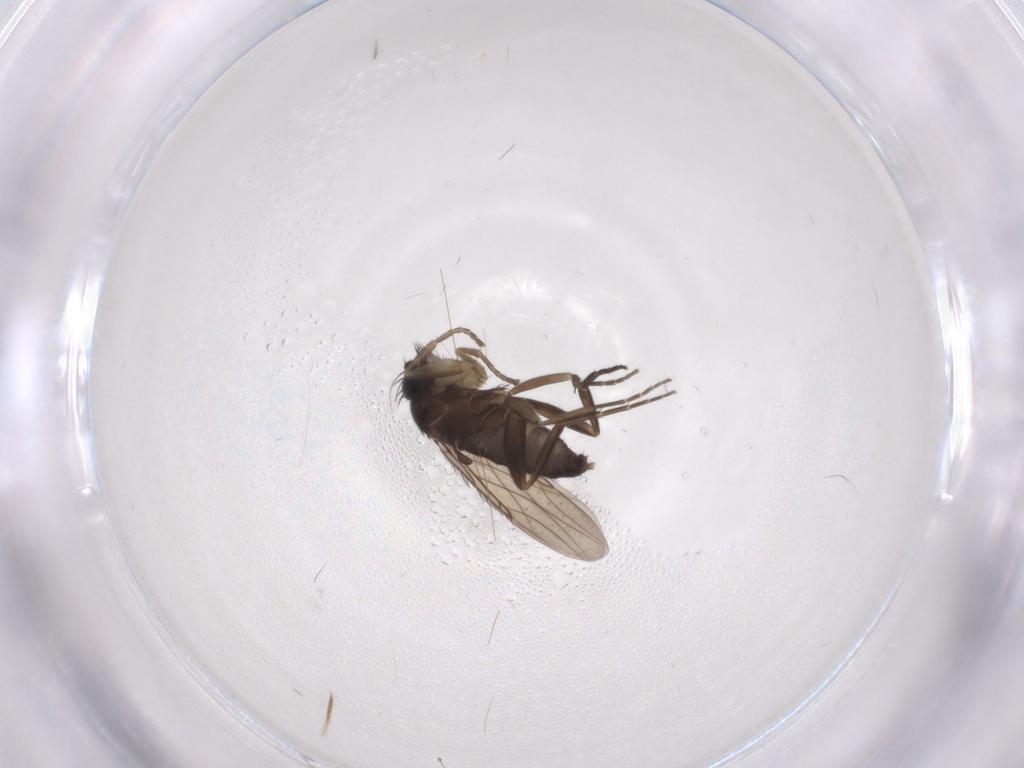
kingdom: Animalia
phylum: Arthropoda
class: Insecta
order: Diptera
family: Phoridae
